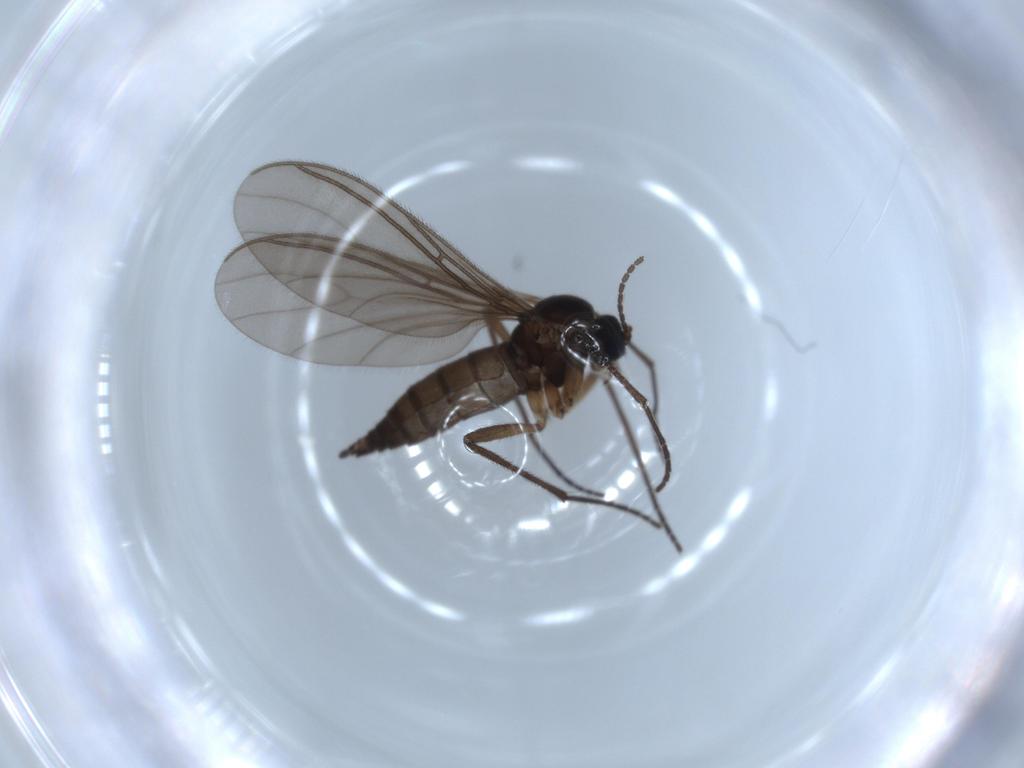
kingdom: Animalia
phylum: Arthropoda
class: Insecta
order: Diptera
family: Sciaridae
